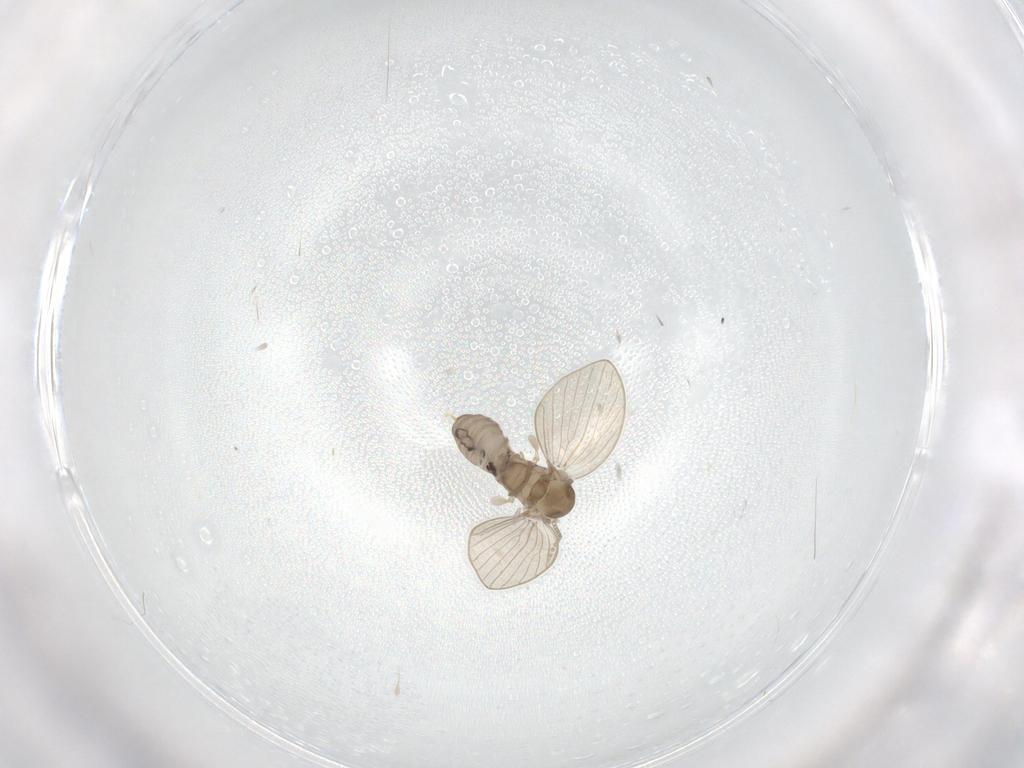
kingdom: Animalia
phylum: Arthropoda
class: Insecta
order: Diptera
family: Psychodidae
